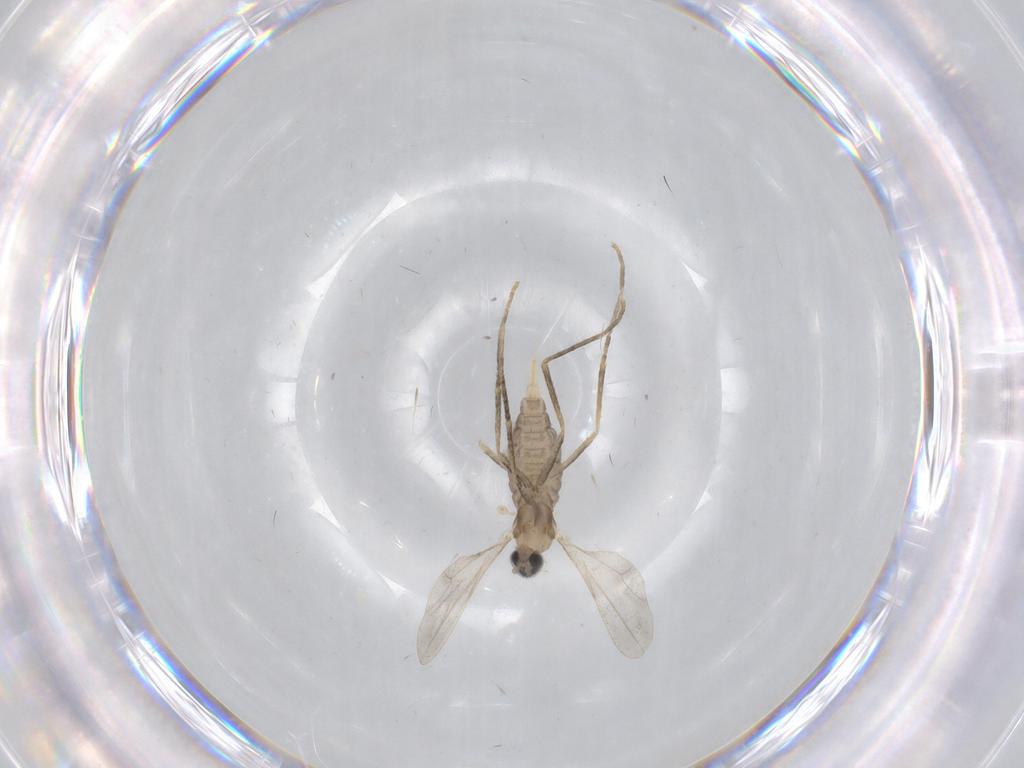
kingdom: Animalia
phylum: Arthropoda
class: Insecta
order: Diptera
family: Cecidomyiidae
